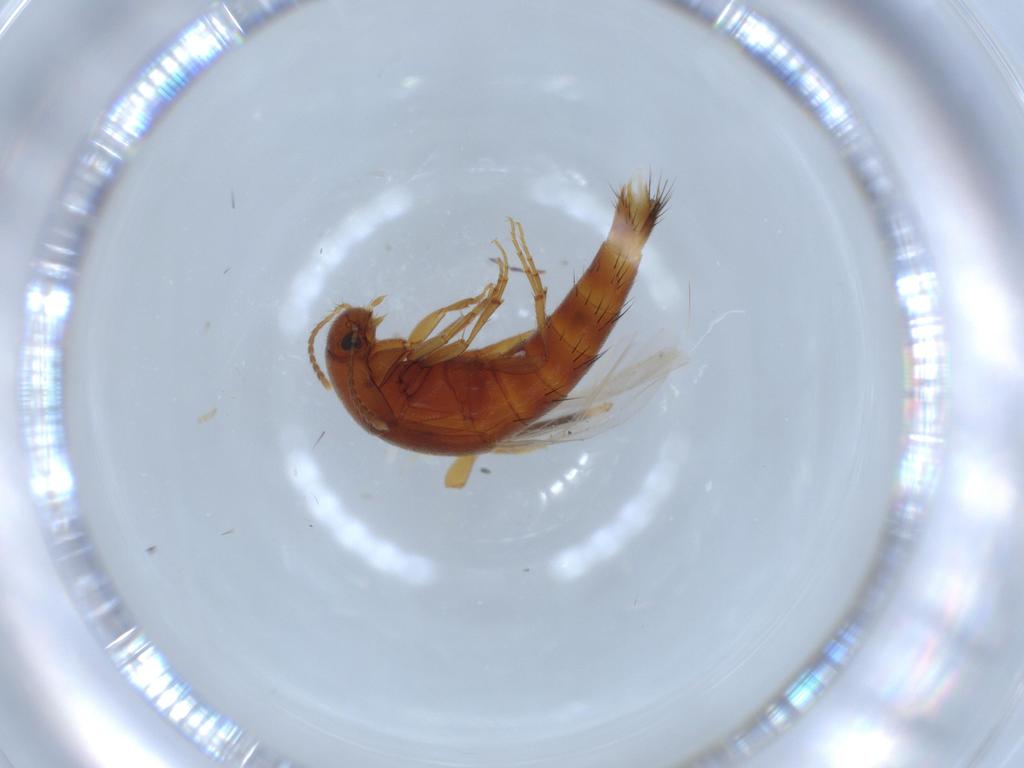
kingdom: Animalia
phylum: Arthropoda
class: Insecta
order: Coleoptera
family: Staphylinidae
